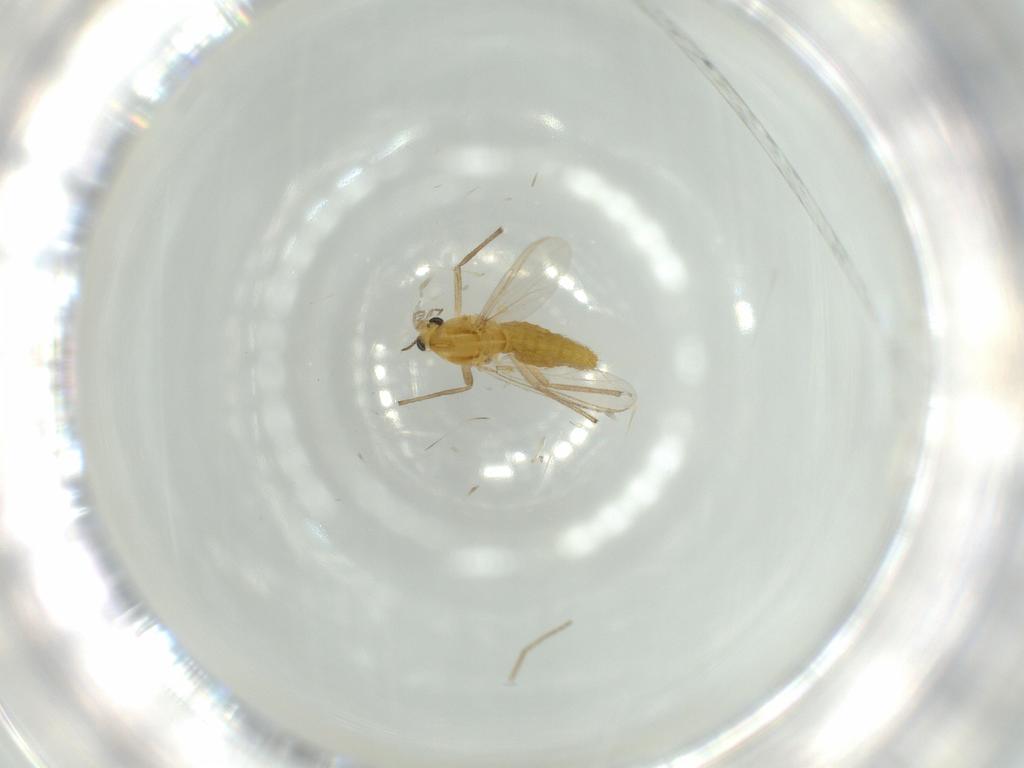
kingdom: Animalia
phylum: Arthropoda
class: Insecta
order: Diptera
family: Chironomidae
